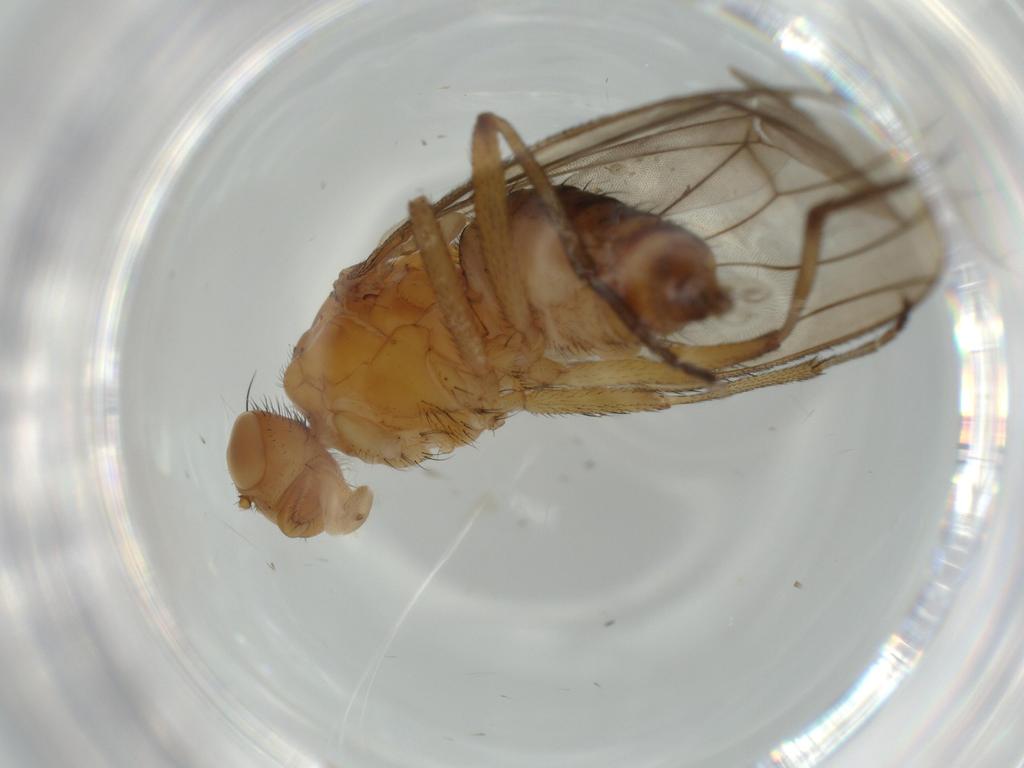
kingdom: Animalia
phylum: Arthropoda
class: Insecta
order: Diptera
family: Heleomyzidae
